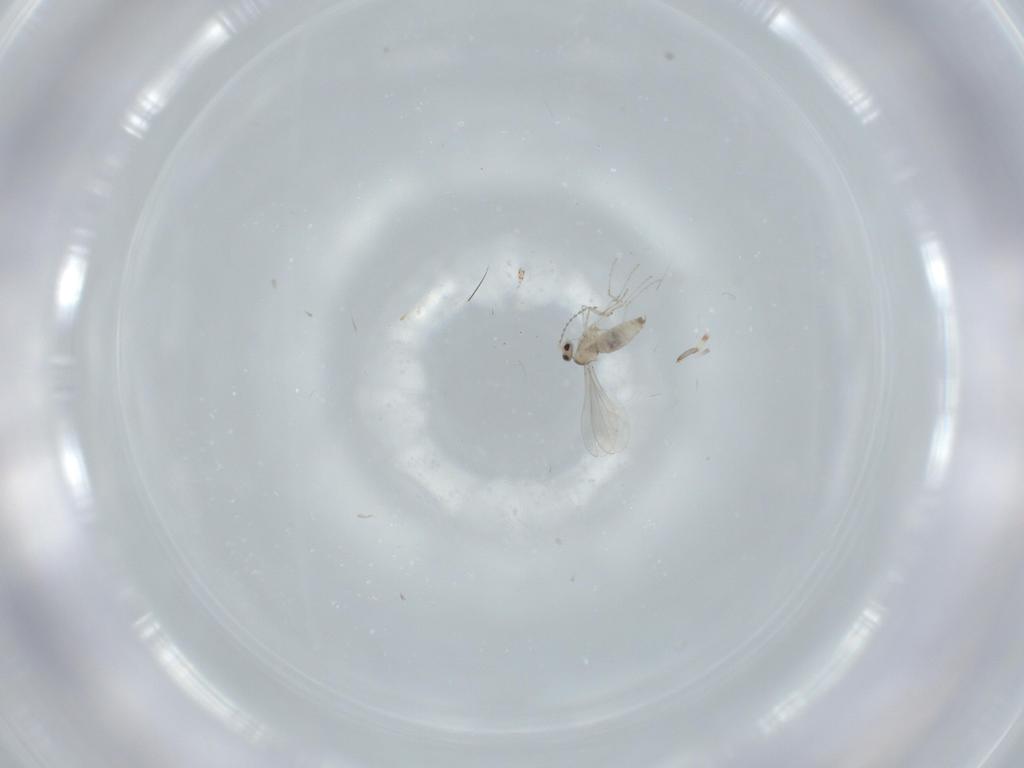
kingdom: Animalia
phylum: Arthropoda
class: Insecta
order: Diptera
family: Cecidomyiidae
